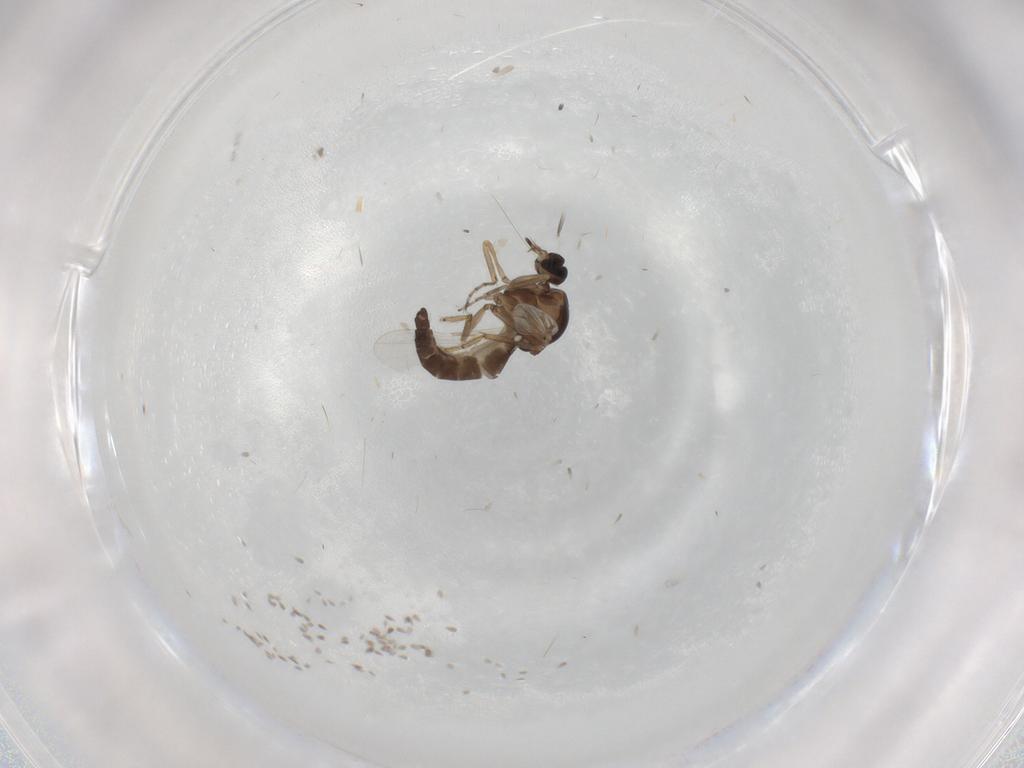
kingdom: Animalia
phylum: Arthropoda
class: Insecta
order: Diptera
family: Ceratopogonidae
